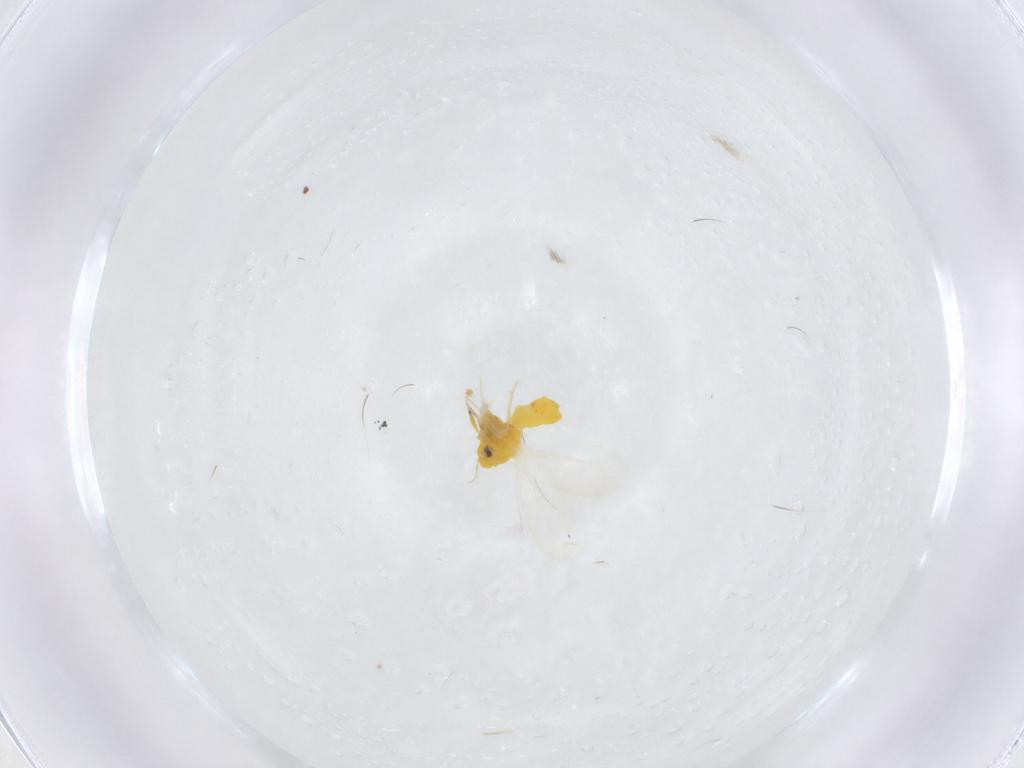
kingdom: Animalia
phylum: Arthropoda
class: Insecta
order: Hemiptera
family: Aleyrodidae
